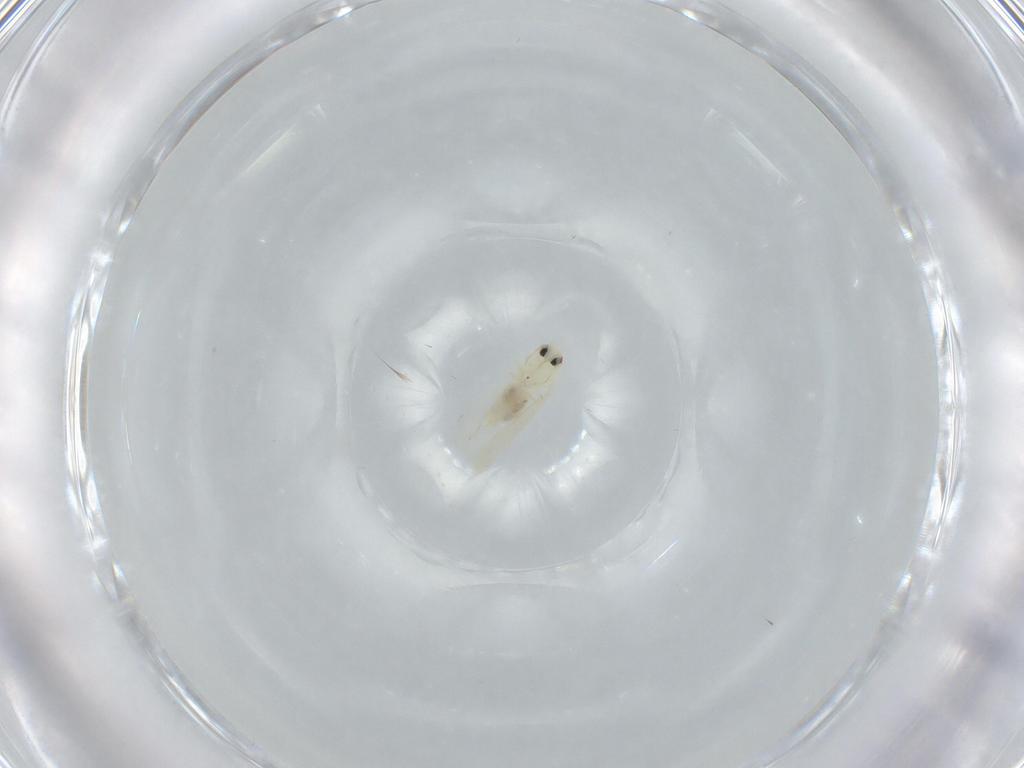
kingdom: Animalia
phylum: Arthropoda
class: Insecta
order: Hemiptera
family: Aleyrodidae
